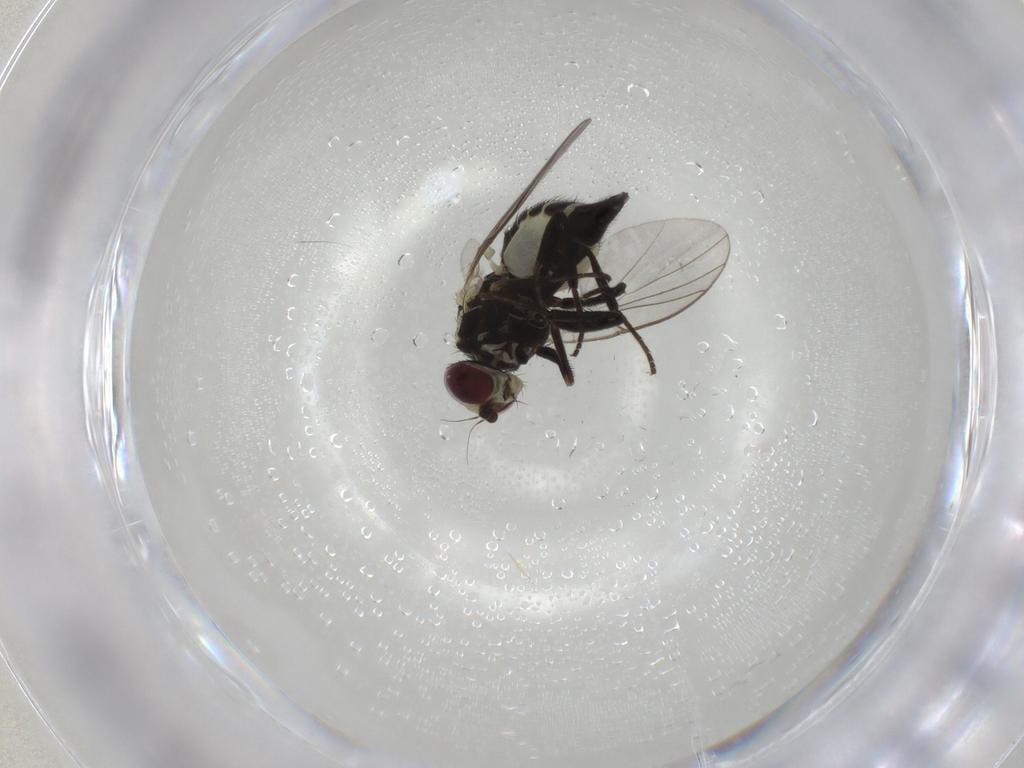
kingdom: Animalia
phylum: Arthropoda
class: Insecta
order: Diptera
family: Agromyzidae
